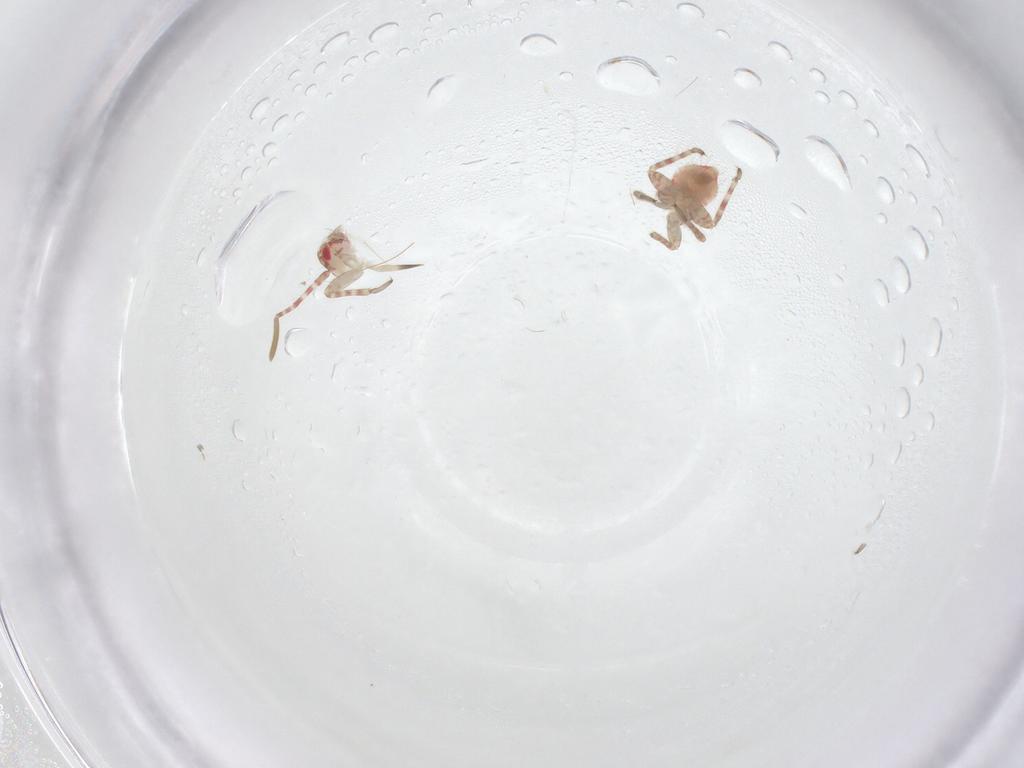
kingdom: Animalia
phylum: Arthropoda
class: Insecta
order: Hemiptera
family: Miridae
